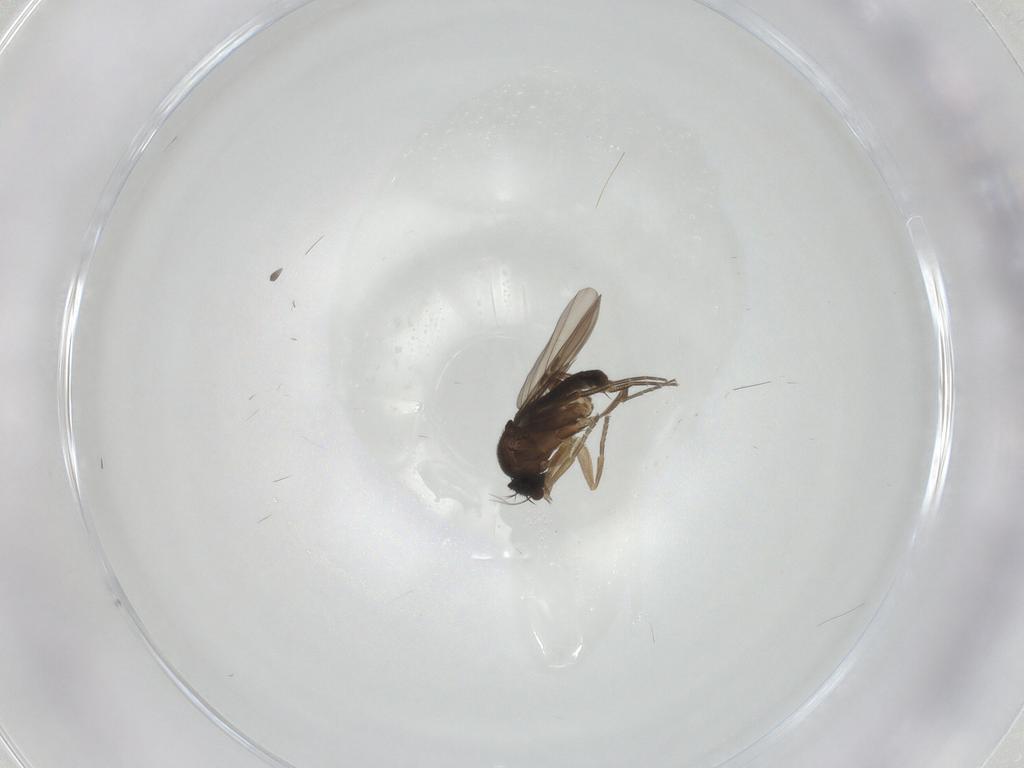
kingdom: Animalia
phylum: Arthropoda
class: Insecta
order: Diptera
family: Phoridae
